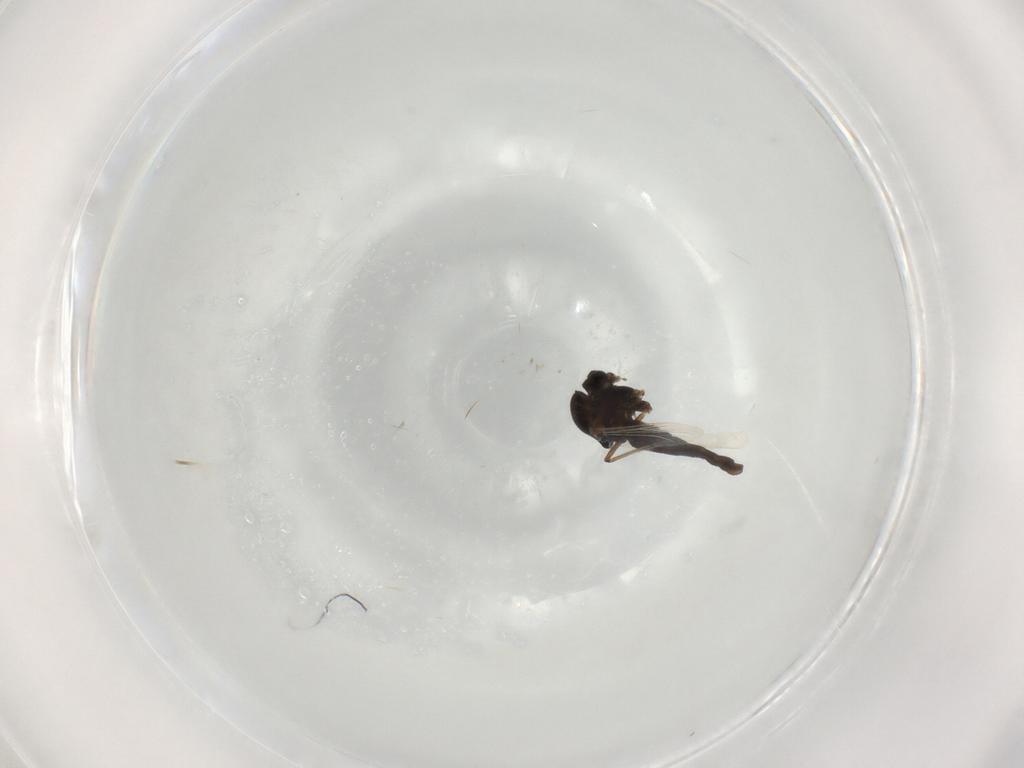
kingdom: Animalia
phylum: Arthropoda
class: Insecta
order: Diptera
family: Chironomidae
